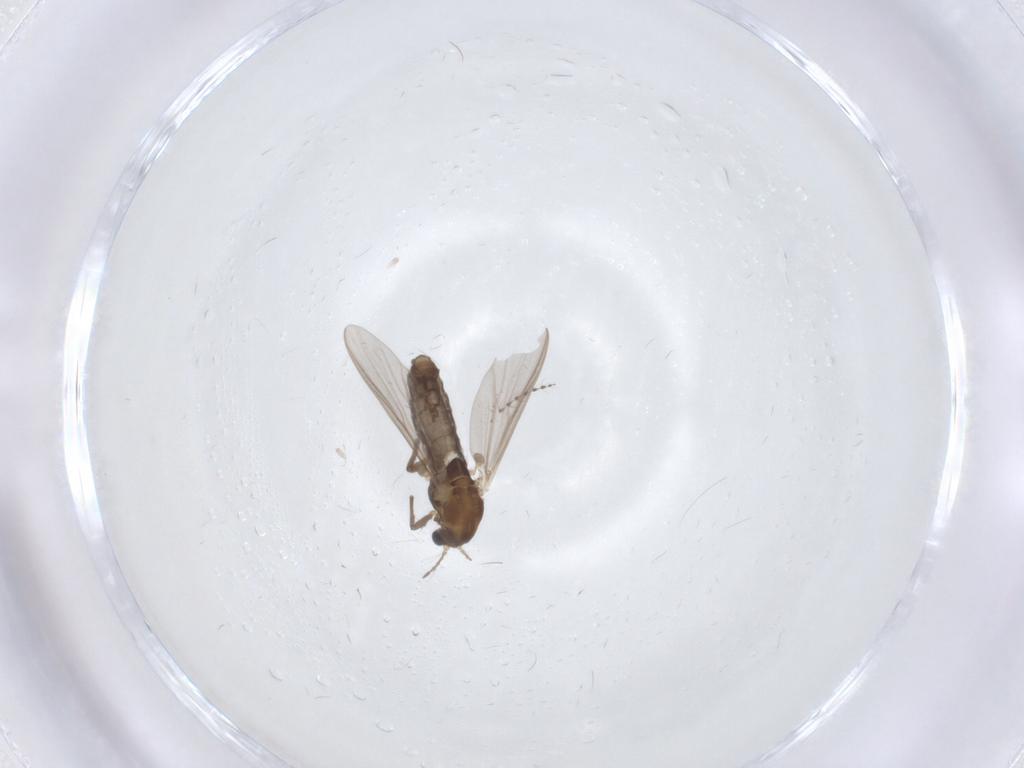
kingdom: Animalia
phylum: Arthropoda
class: Insecta
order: Diptera
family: Chironomidae
